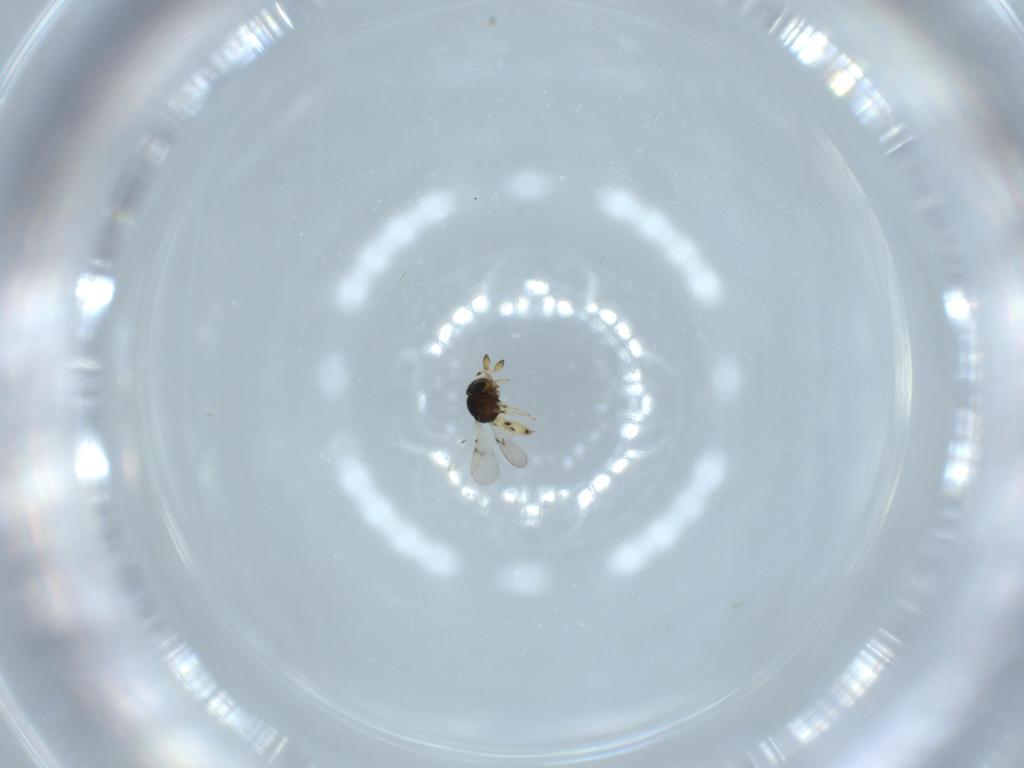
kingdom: Animalia
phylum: Arthropoda
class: Insecta
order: Hymenoptera
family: Scelionidae
